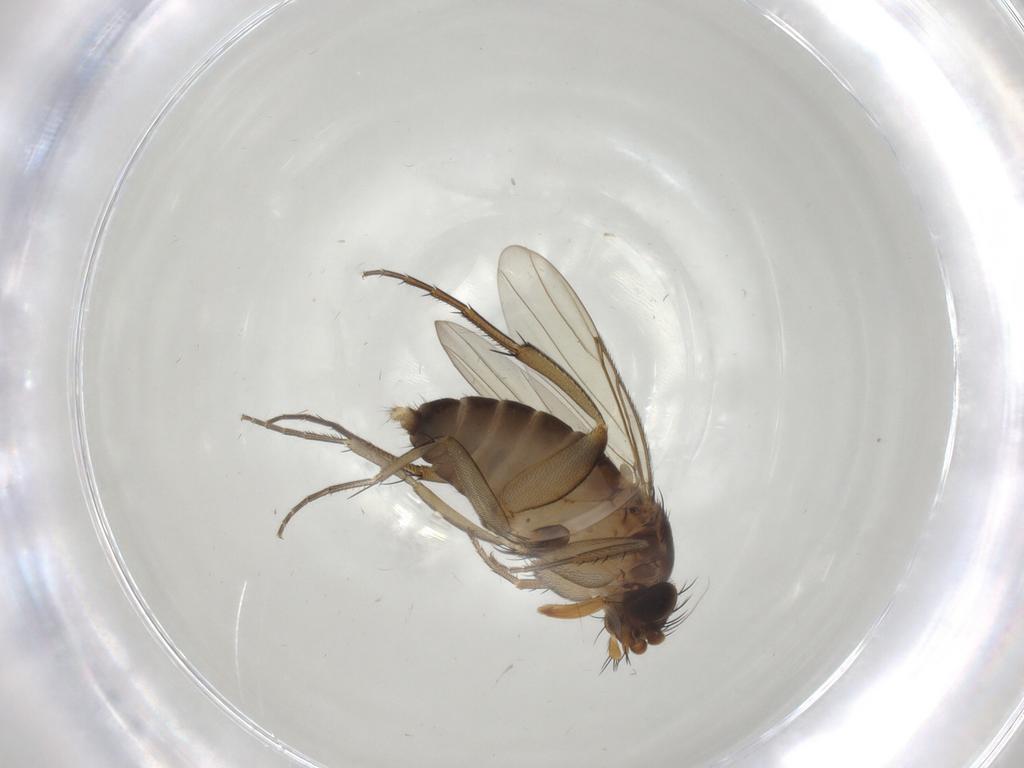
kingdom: Animalia
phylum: Arthropoda
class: Insecta
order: Diptera
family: Phoridae
